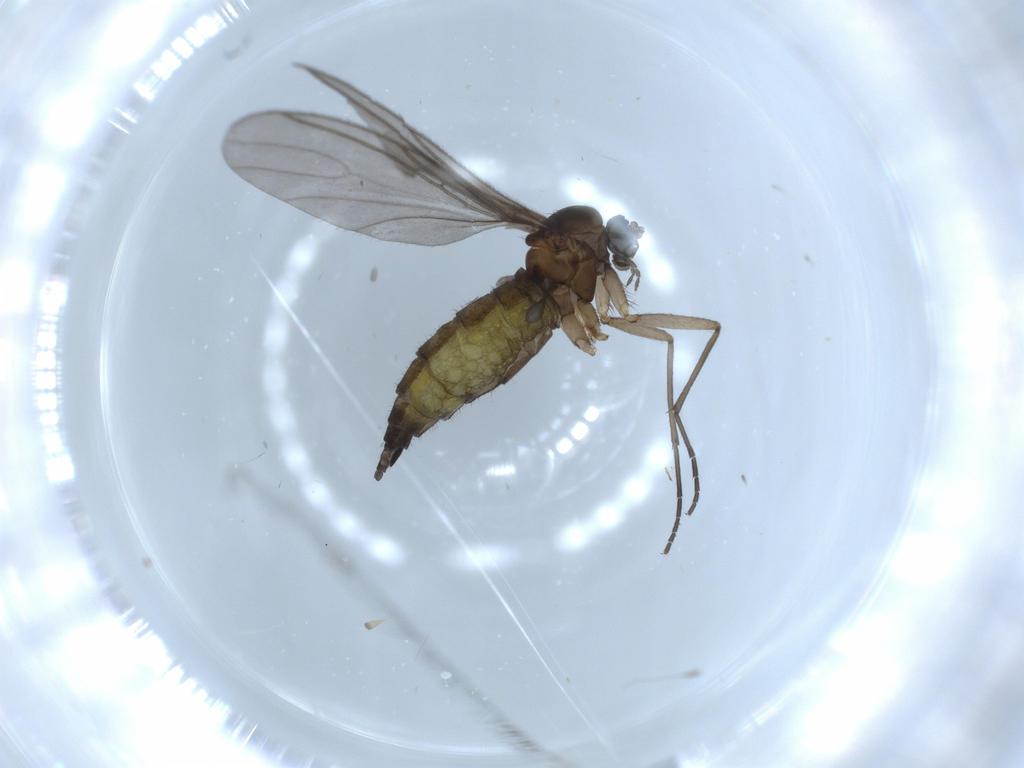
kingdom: Animalia
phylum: Arthropoda
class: Insecta
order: Diptera
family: Sciaridae
